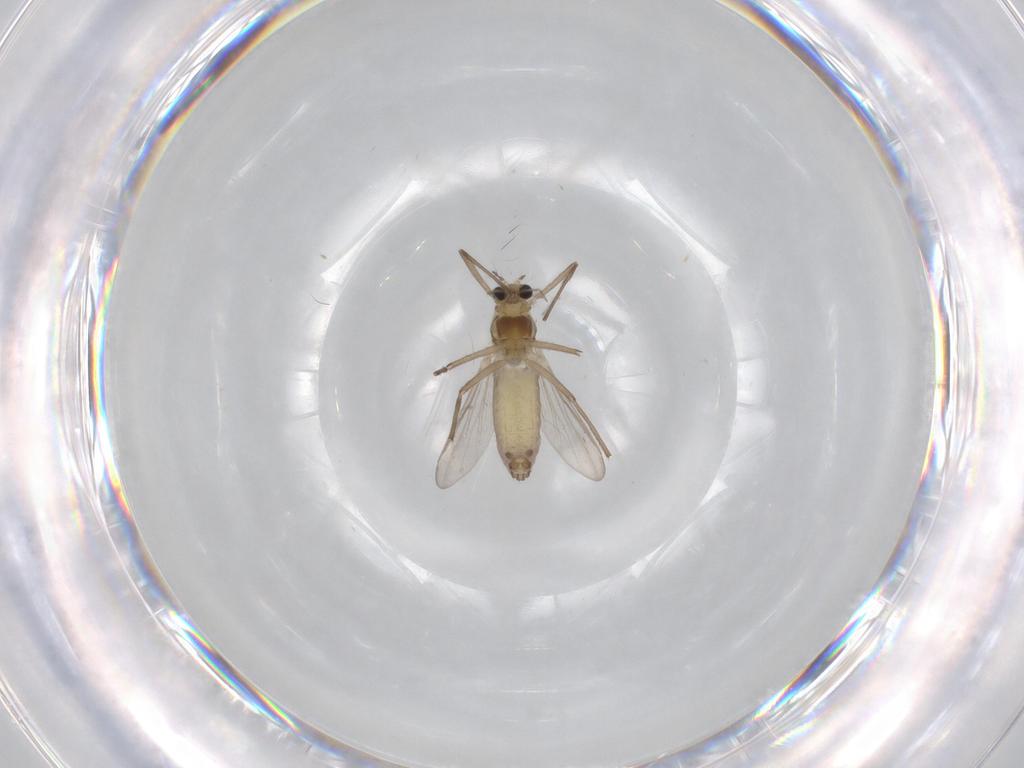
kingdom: Animalia
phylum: Arthropoda
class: Insecta
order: Diptera
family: Chironomidae
